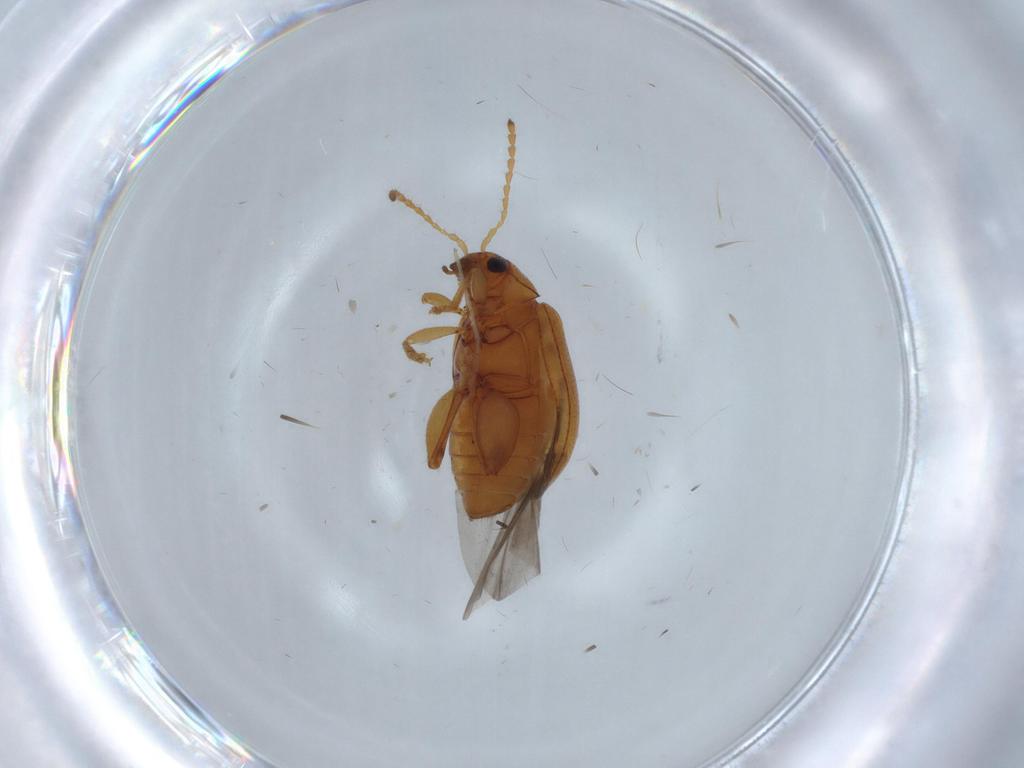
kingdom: Animalia
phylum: Arthropoda
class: Insecta
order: Coleoptera
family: Chrysomelidae
